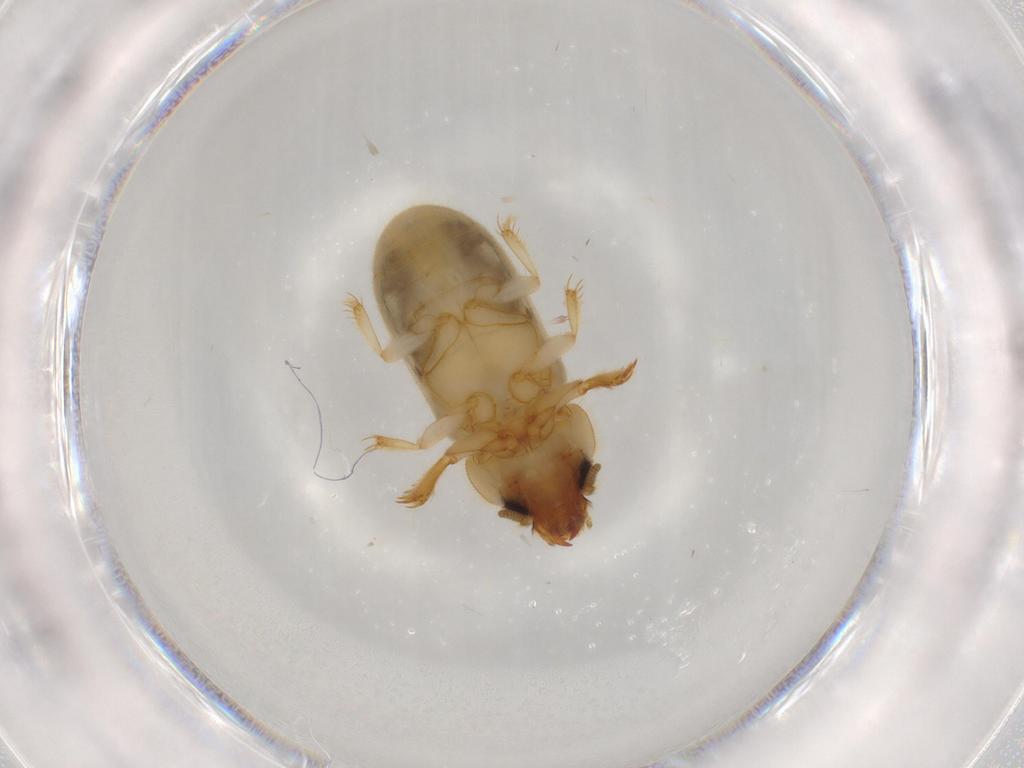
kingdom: Animalia
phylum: Arthropoda
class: Insecta
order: Coleoptera
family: Heteroceridae
